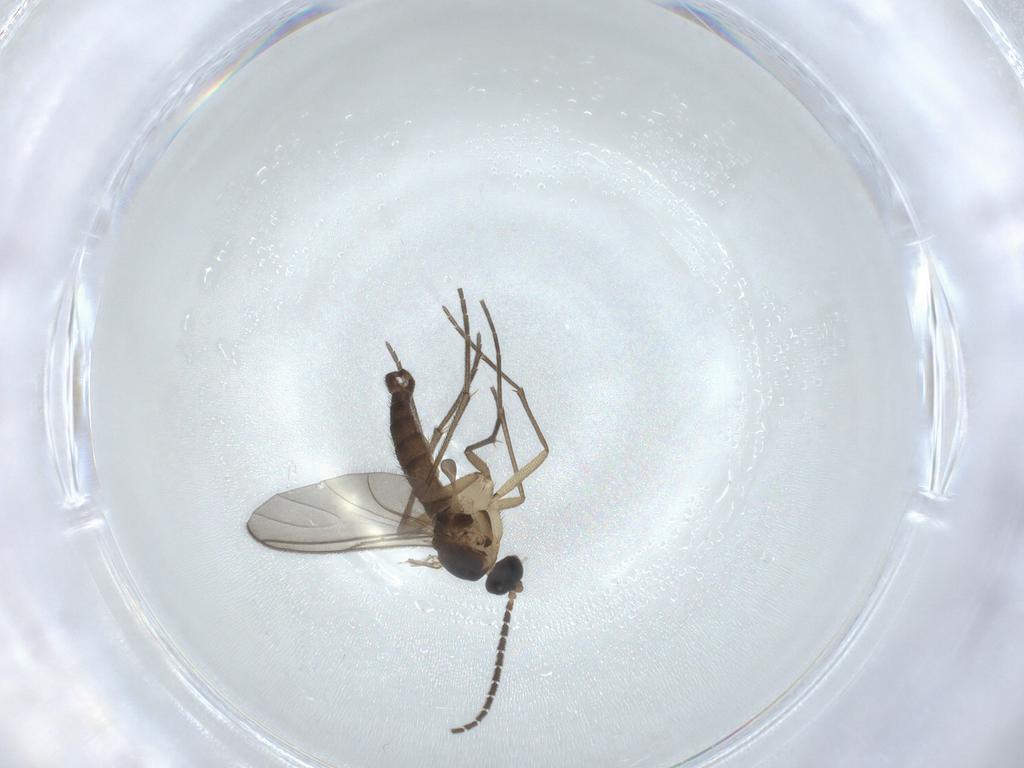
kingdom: Animalia
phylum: Arthropoda
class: Insecta
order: Diptera
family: Sciaridae
